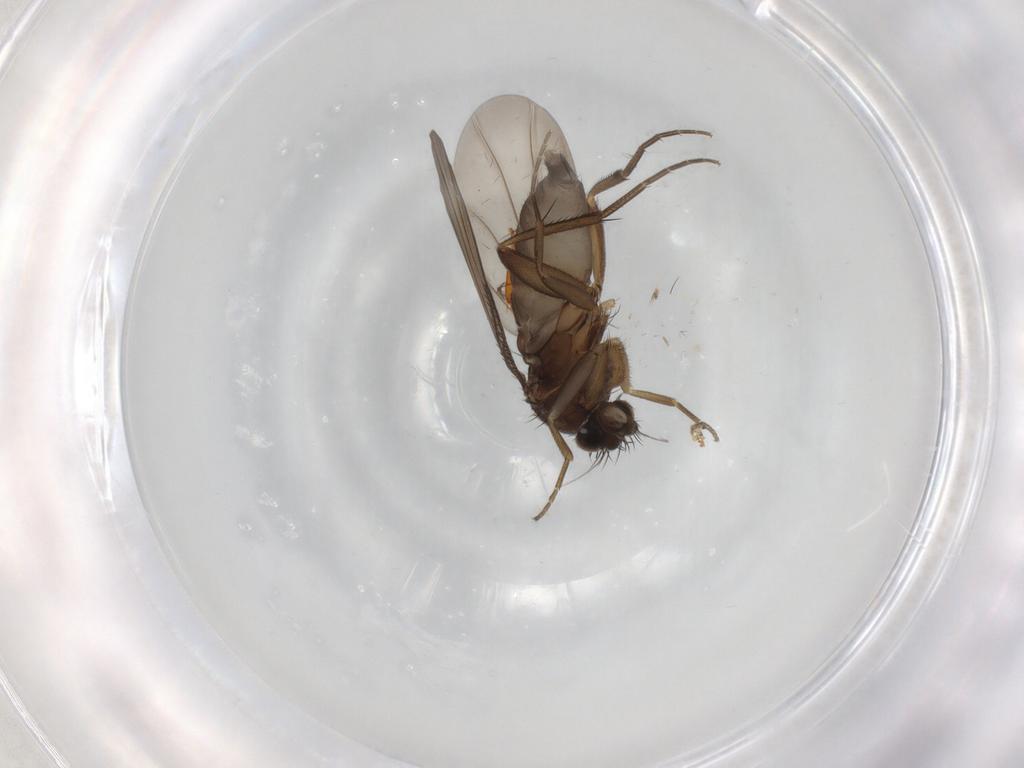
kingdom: Animalia
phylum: Arthropoda
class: Insecta
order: Diptera
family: Phoridae
